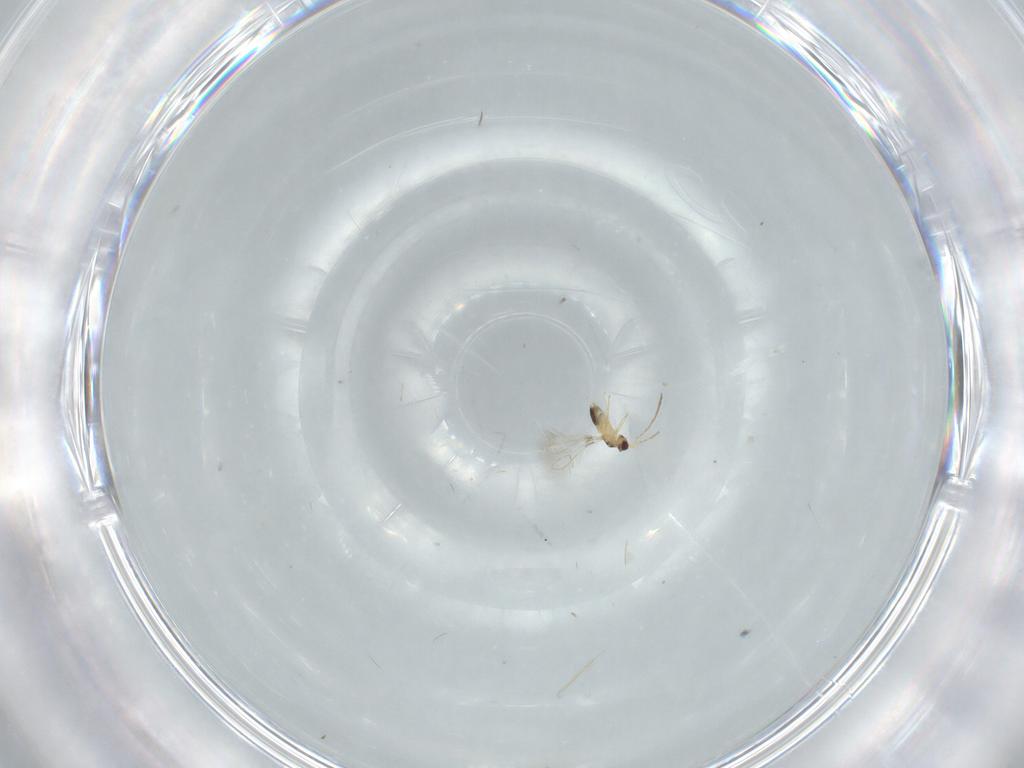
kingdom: Animalia
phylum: Arthropoda
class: Insecta
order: Hymenoptera
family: Mymaridae
